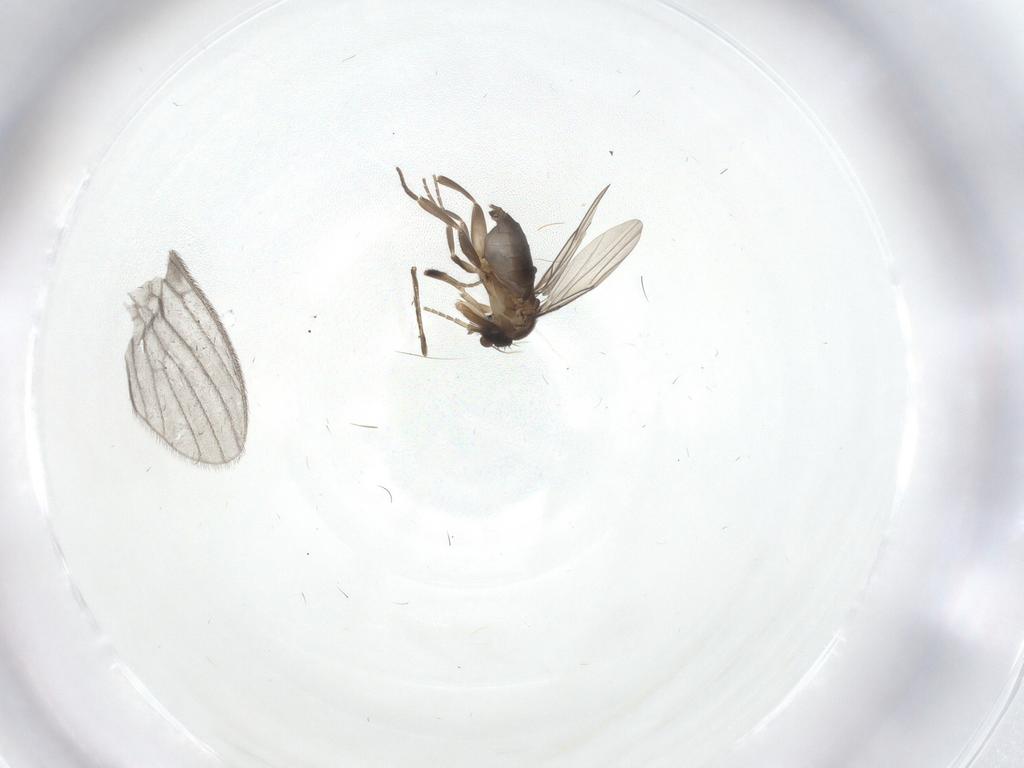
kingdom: Animalia
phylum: Arthropoda
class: Insecta
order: Diptera
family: Phoridae
